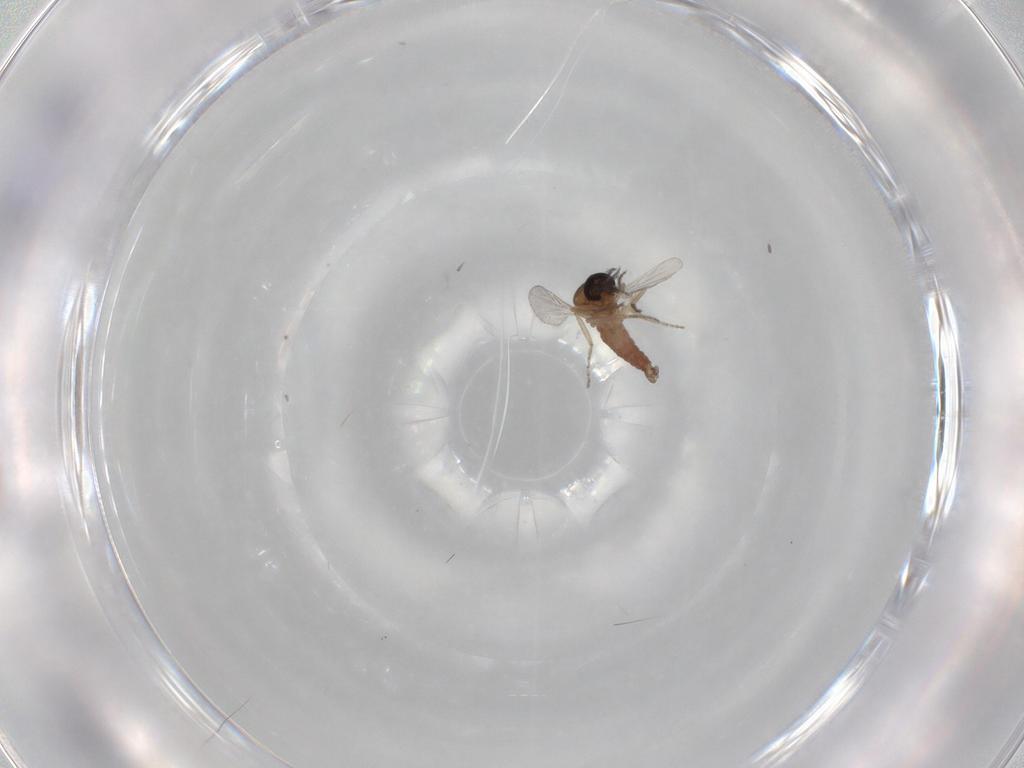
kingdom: Animalia
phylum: Arthropoda
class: Insecta
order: Diptera
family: Ceratopogonidae
